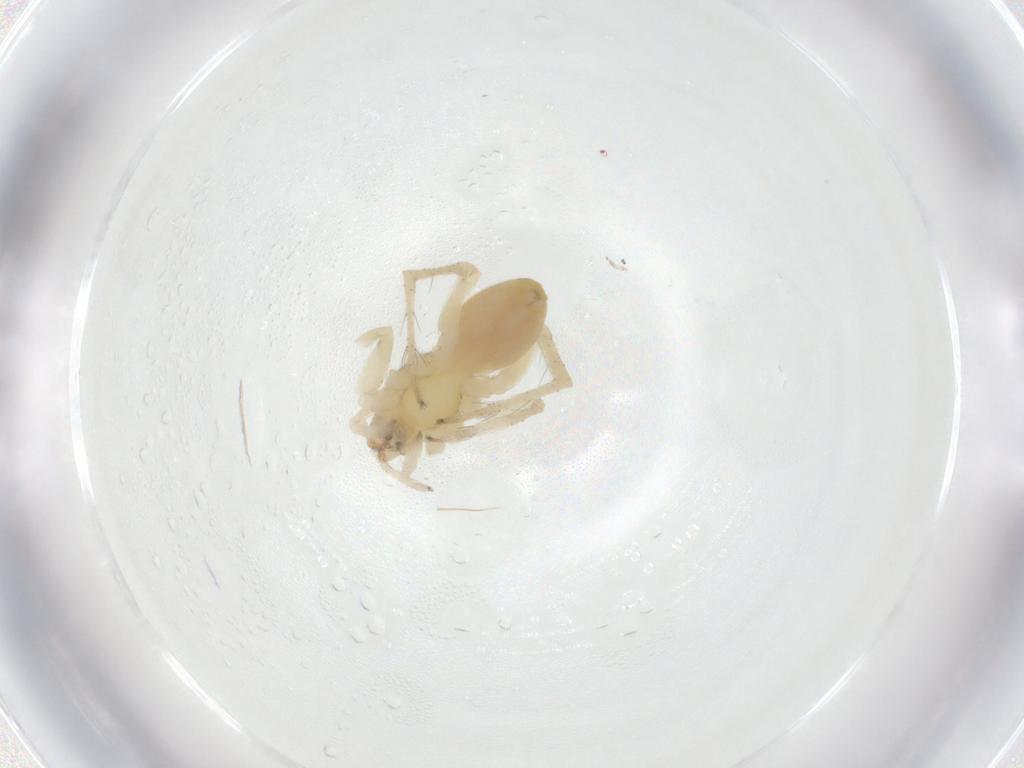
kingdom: Animalia
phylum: Arthropoda
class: Arachnida
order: Araneae
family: Anyphaenidae
